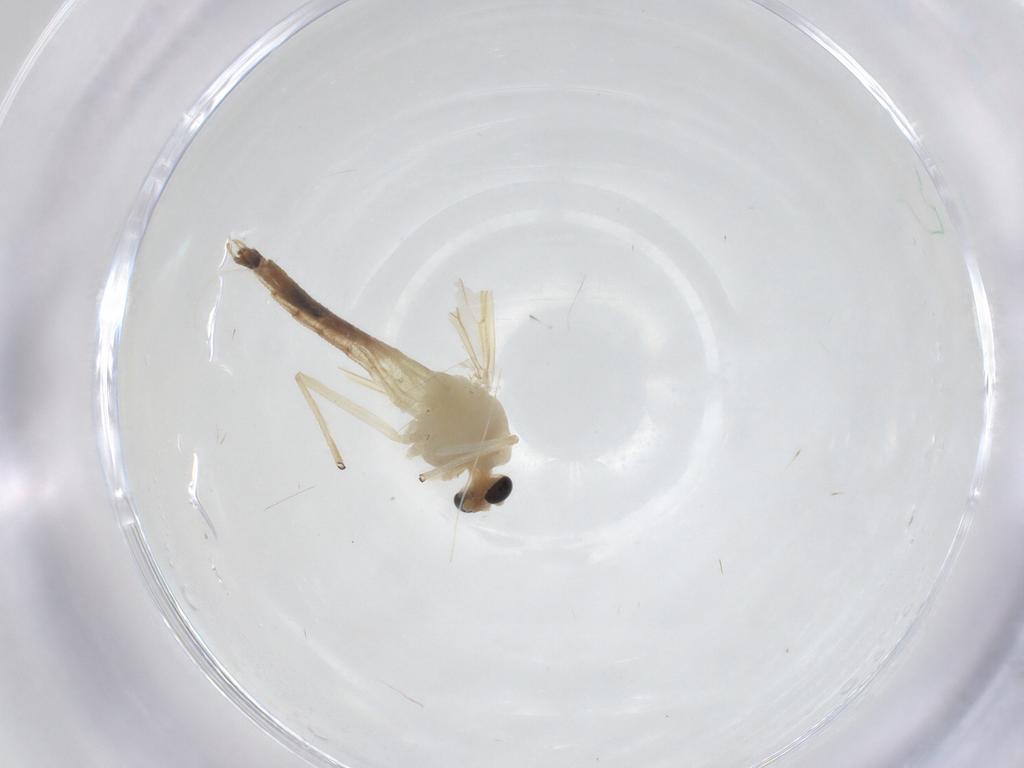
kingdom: Animalia
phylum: Arthropoda
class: Insecta
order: Diptera
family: Chironomidae
